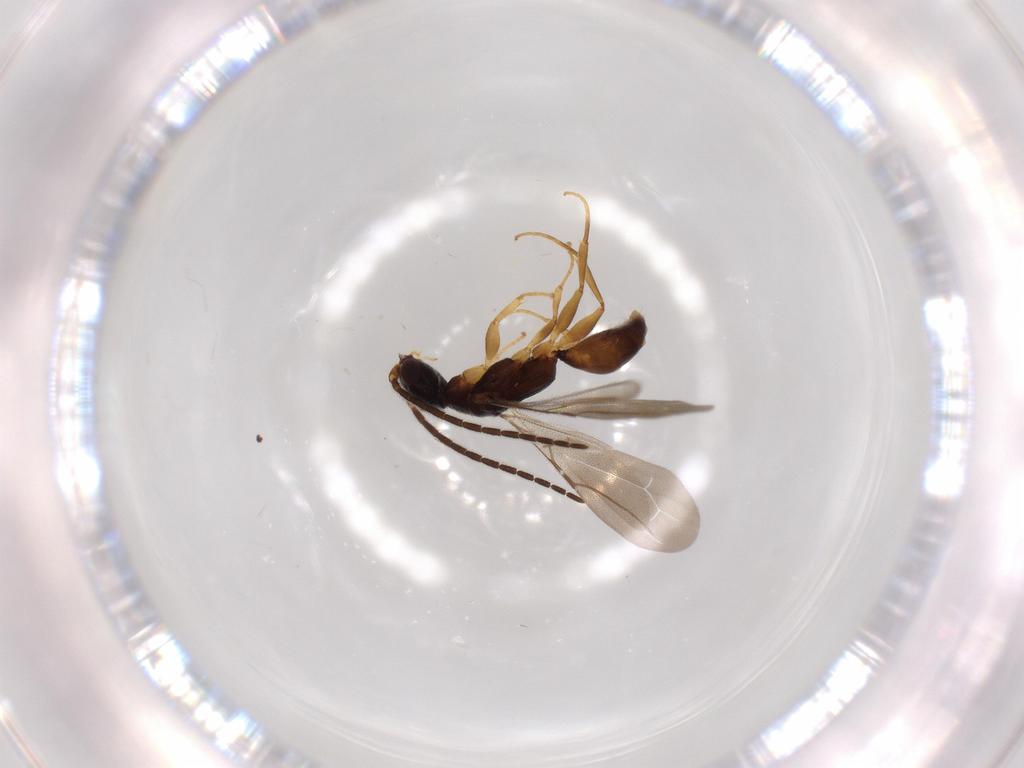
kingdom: Animalia
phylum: Arthropoda
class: Insecta
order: Hymenoptera
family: Bethylidae
